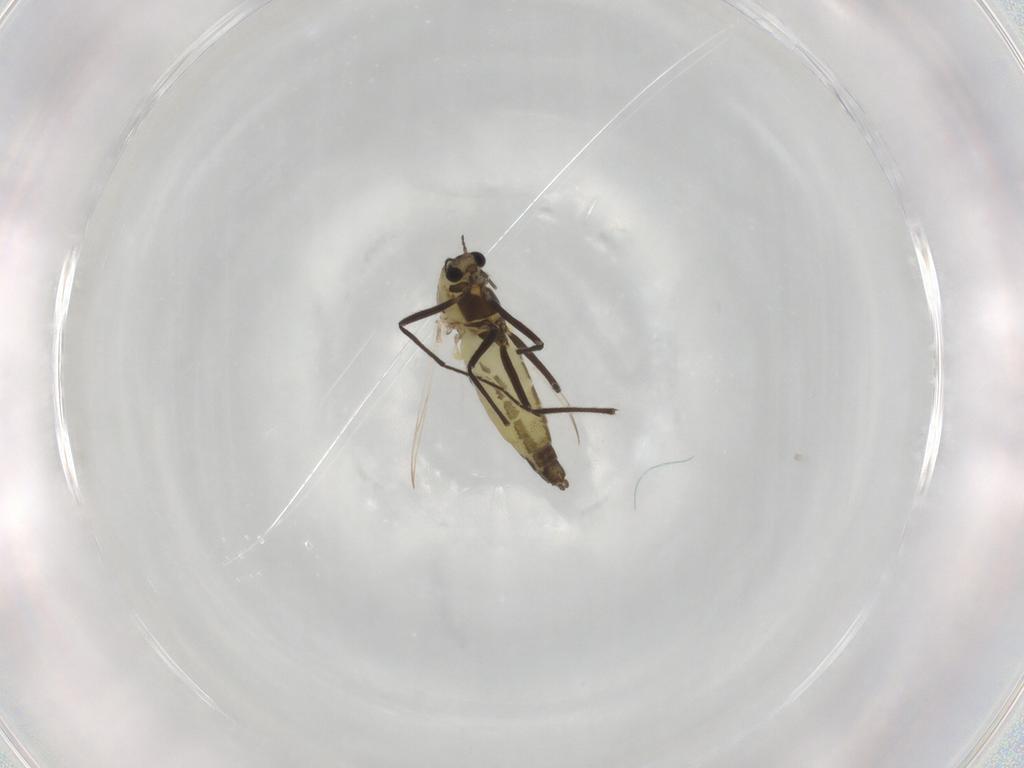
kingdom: Animalia
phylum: Arthropoda
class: Insecta
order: Diptera
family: Chironomidae
